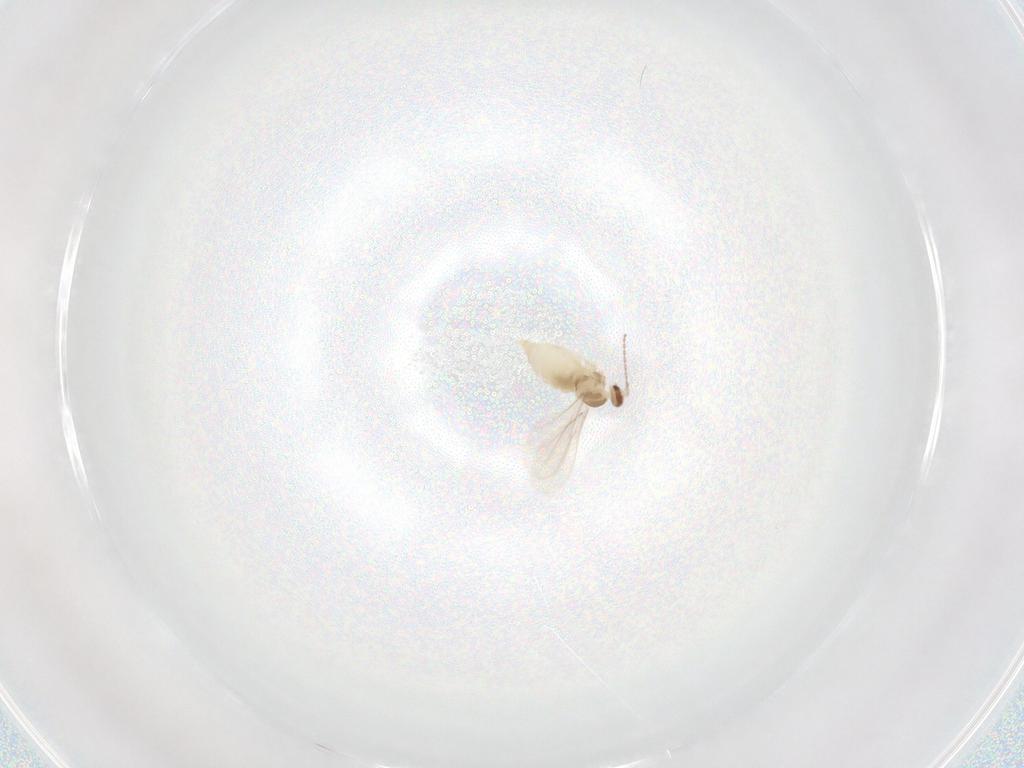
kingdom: Animalia
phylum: Arthropoda
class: Insecta
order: Diptera
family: Cecidomyiidae
